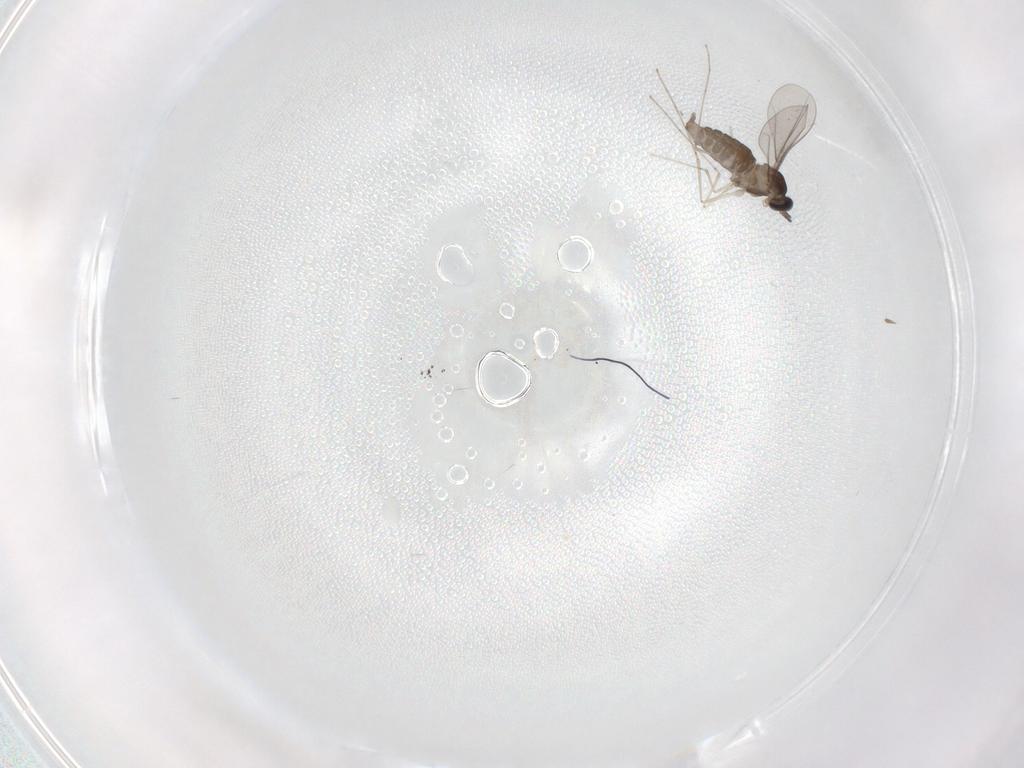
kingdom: Animalia
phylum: Arthropoda
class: Insecta
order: Diptera
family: Cecidomyiidae
